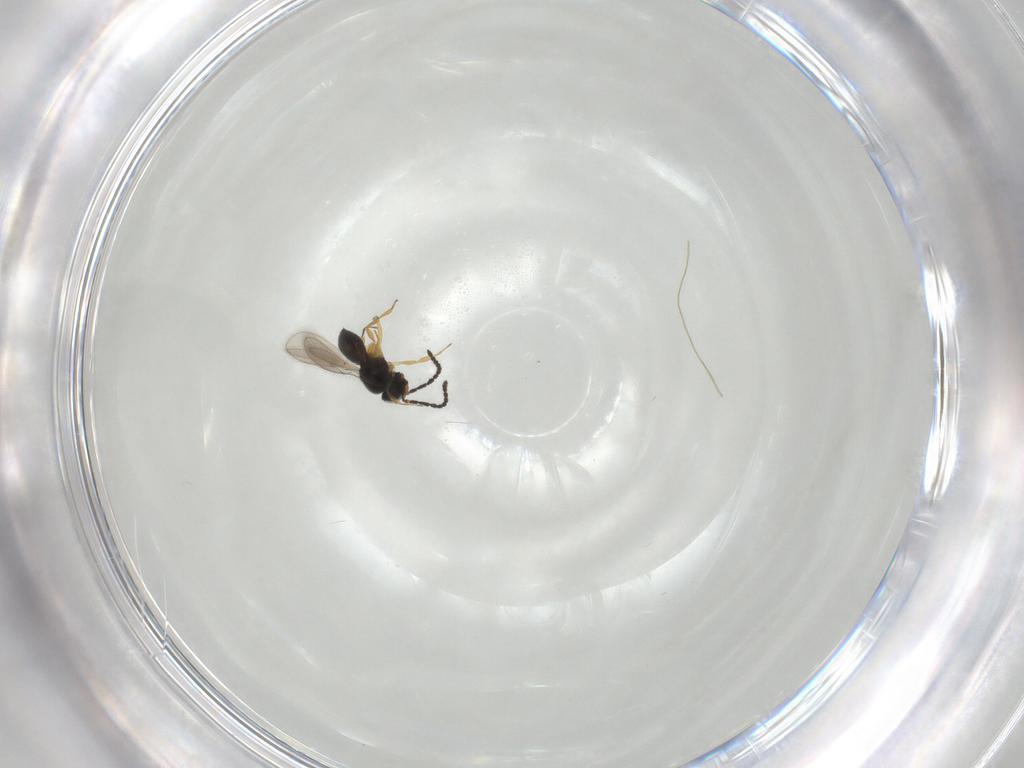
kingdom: Animalia
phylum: Arthropoda
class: Insecta
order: Hymenoptera
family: Scelionidae
